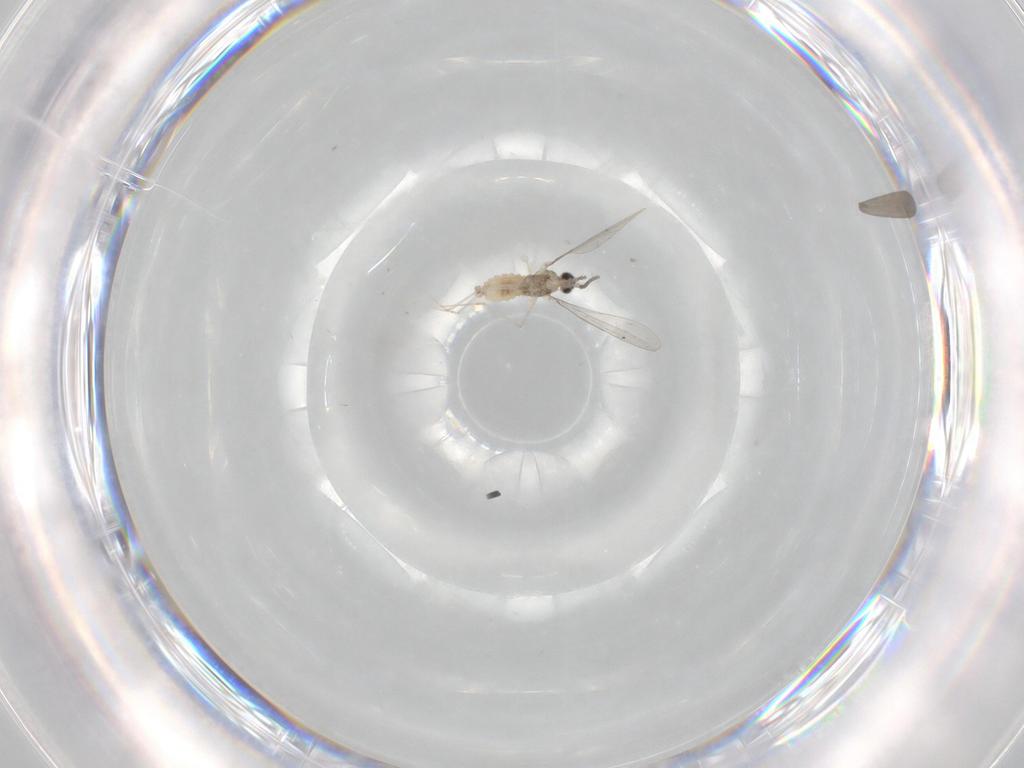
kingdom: Animalia
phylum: Arthropoda
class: Insecta
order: Diptera
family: Cecidomyiidae
